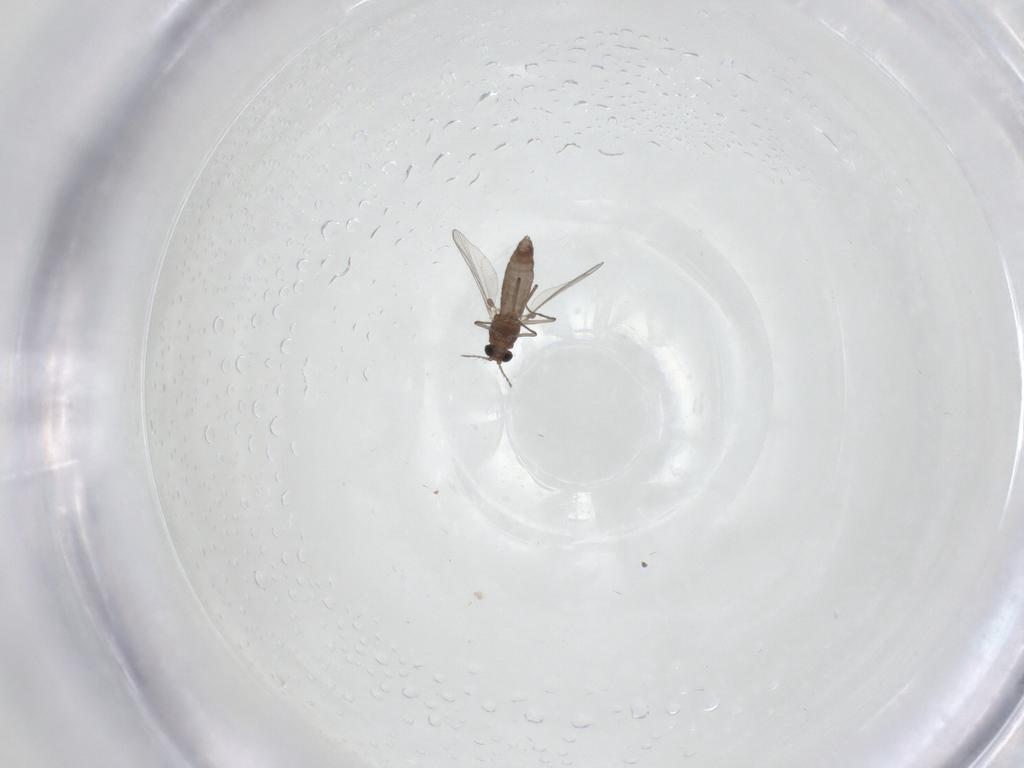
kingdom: Animalia
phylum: Arthropoda
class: Insecta
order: Diptera
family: Chironomidae
